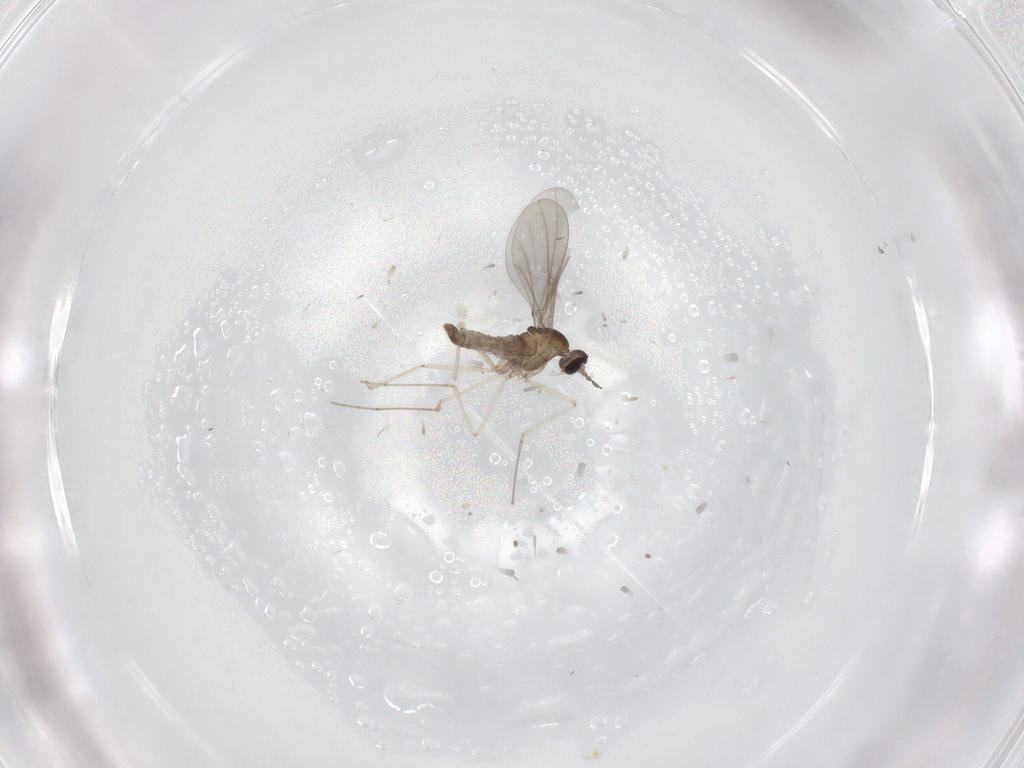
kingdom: Animalia
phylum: Arthropoda
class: Insecta
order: Diptera
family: Cecidomyiidae
